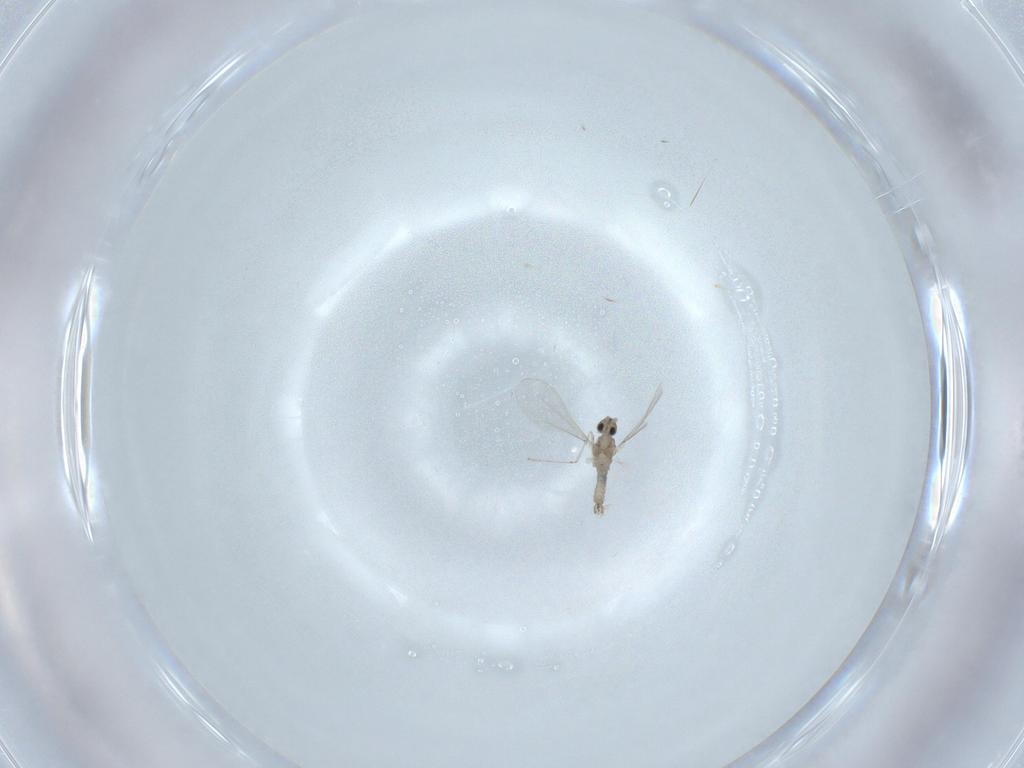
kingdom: Animalia
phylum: Arthropoda
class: Insecta
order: Diptera
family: Cecidomyiidae
